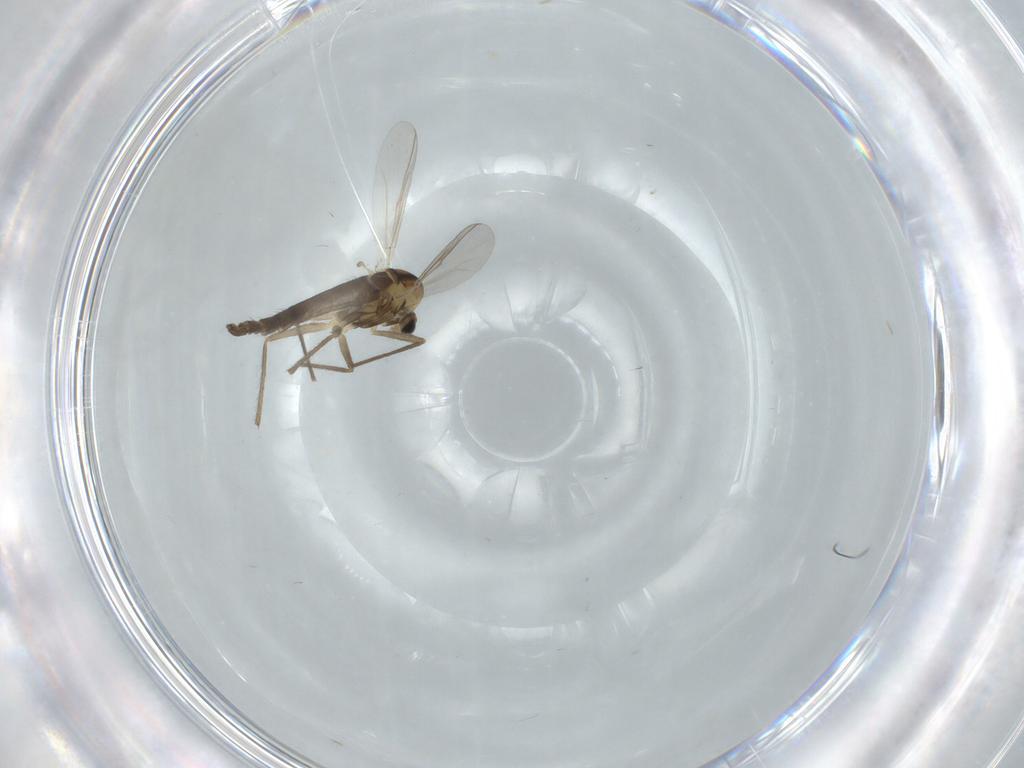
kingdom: Animalia
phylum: Arthropoda
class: Insecta
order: Diptera
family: Chironomidae
